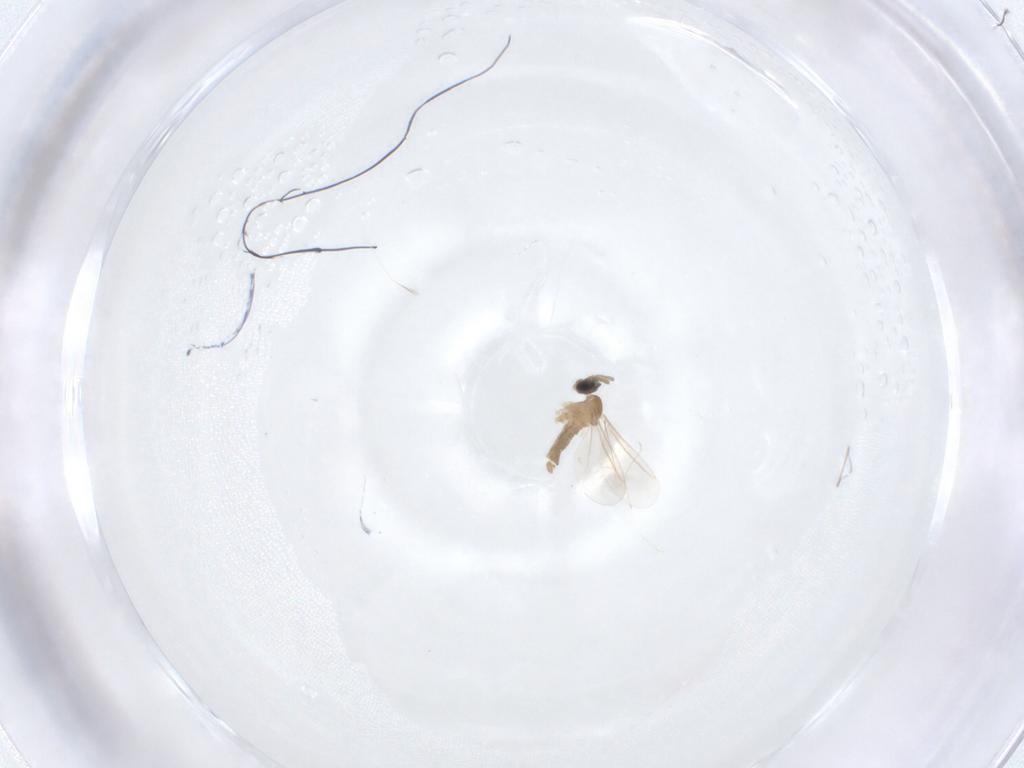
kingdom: Animalia
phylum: Arthropoda
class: Insecta
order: Diptera
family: Cecidomyiidae
